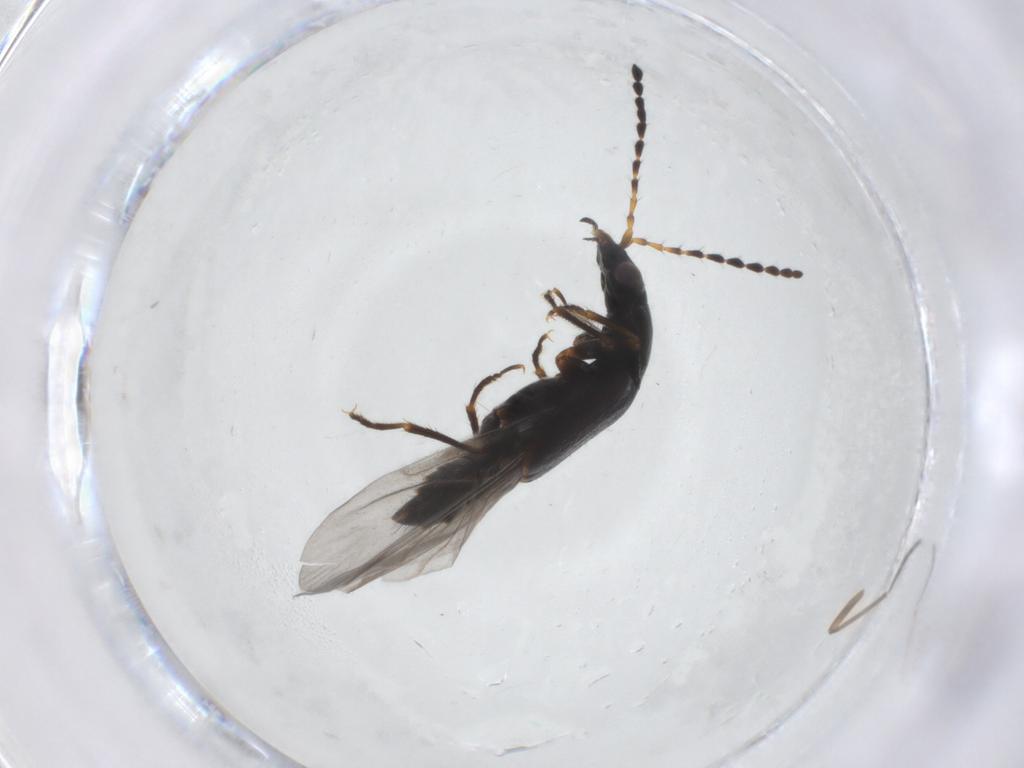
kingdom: Animalia
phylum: Arthropoda
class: Insecta
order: Coleoptera
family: Staphylinidae
